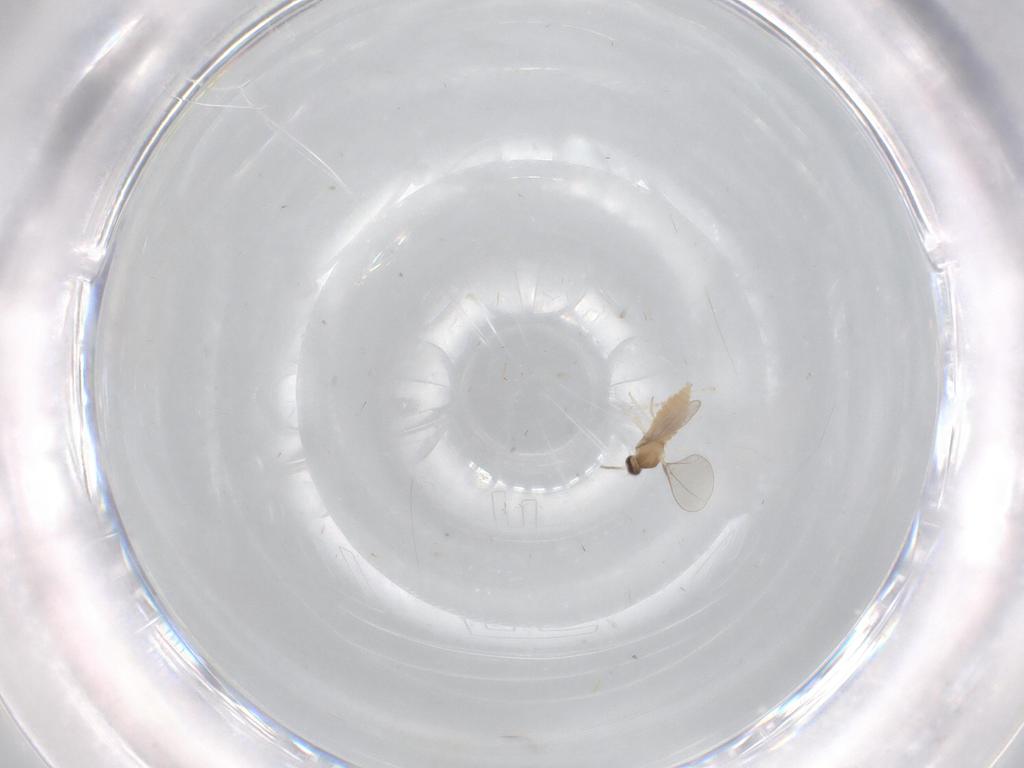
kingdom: Animalia
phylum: Arthropoda
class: Insecta
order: Diptera
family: Cecidomyiidae
